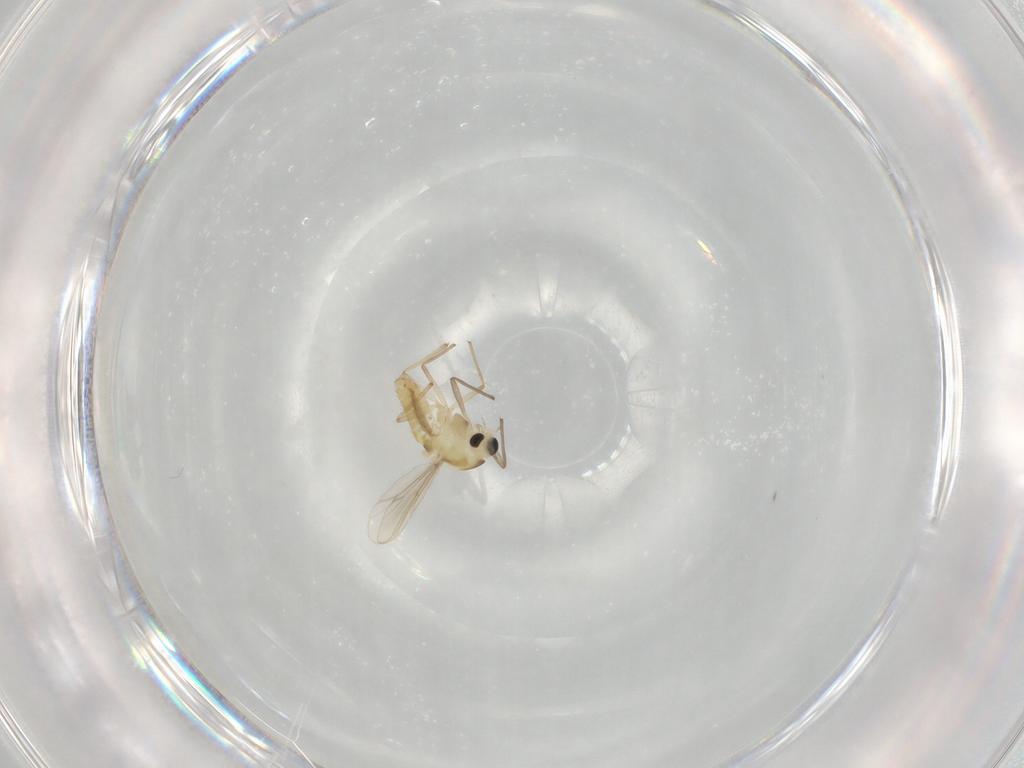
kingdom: Animalia
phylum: Arthropoda
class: Insecta
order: Diptera
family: Chironomidae
